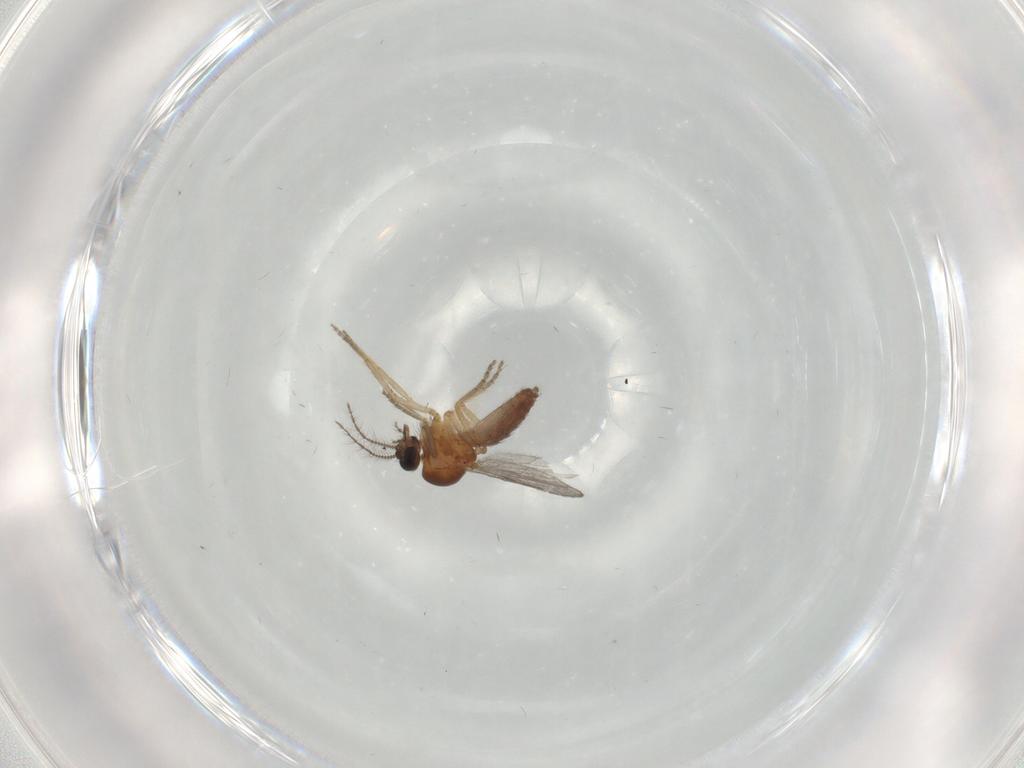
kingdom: Animalia
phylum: Arthropoda
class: Insecta
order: Diptera
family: Ceratopogonidae
